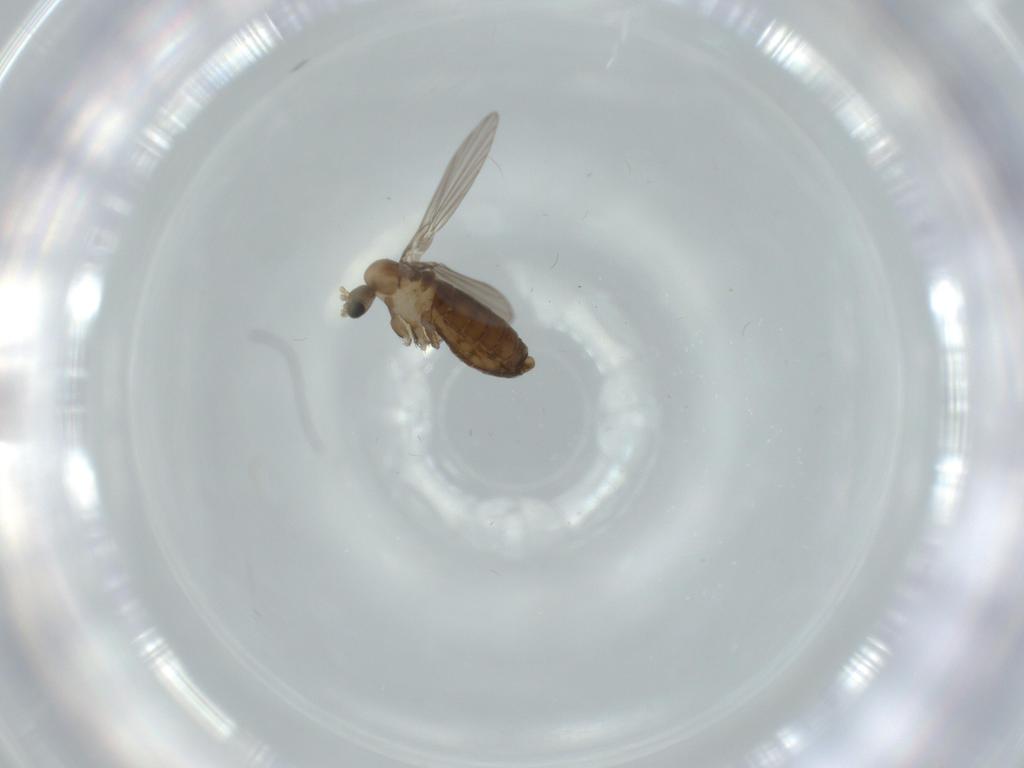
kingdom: Animalia
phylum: Arthropoda
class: Insecta
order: Diptera
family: Psychodidae
